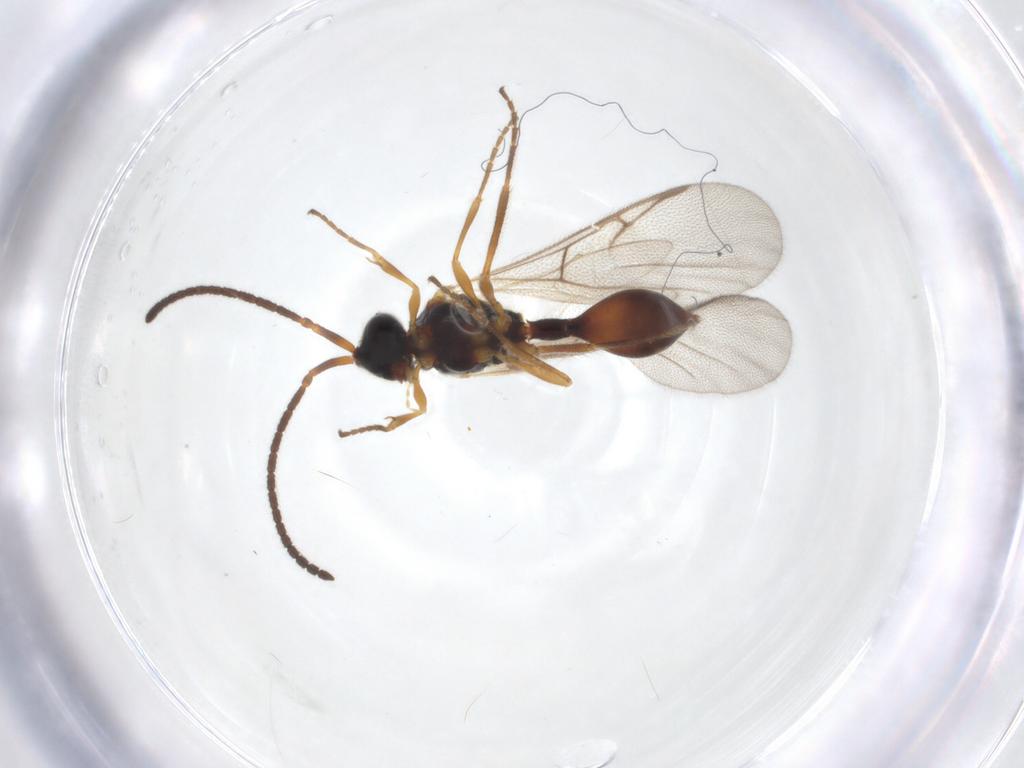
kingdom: Animalia
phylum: Arthropoda
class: Insecta
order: Hymenoptera
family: Diapriidae
